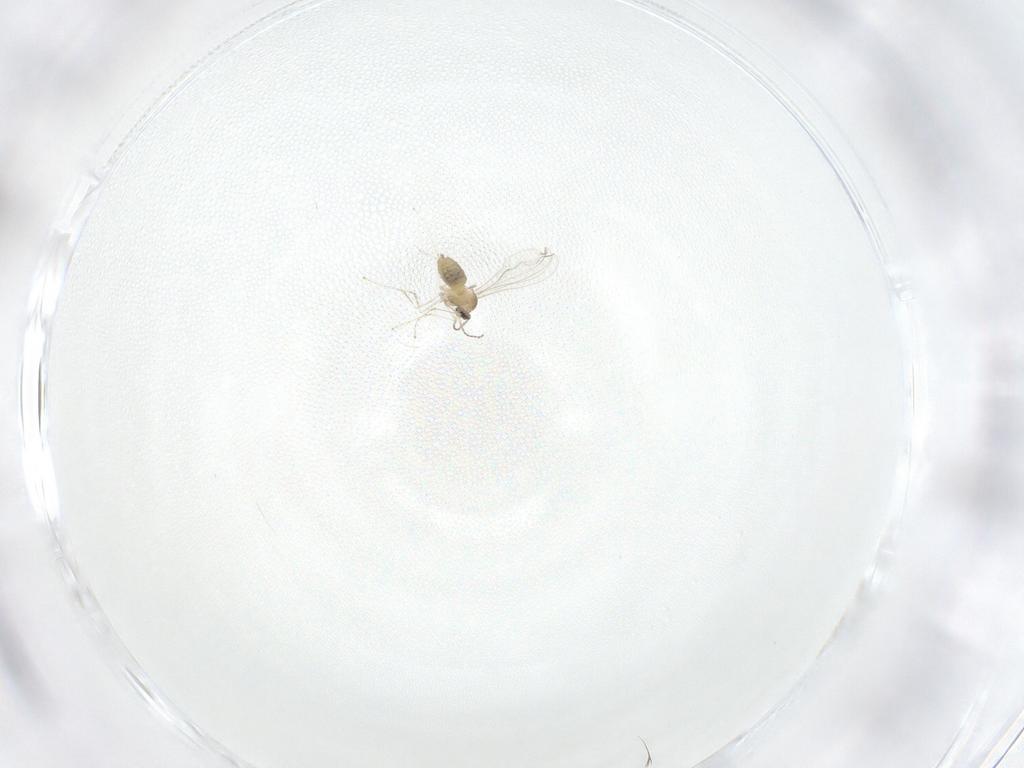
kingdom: Animalia
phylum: Arthropoda
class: Insecta
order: Diptera
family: Cecidomyiidae
